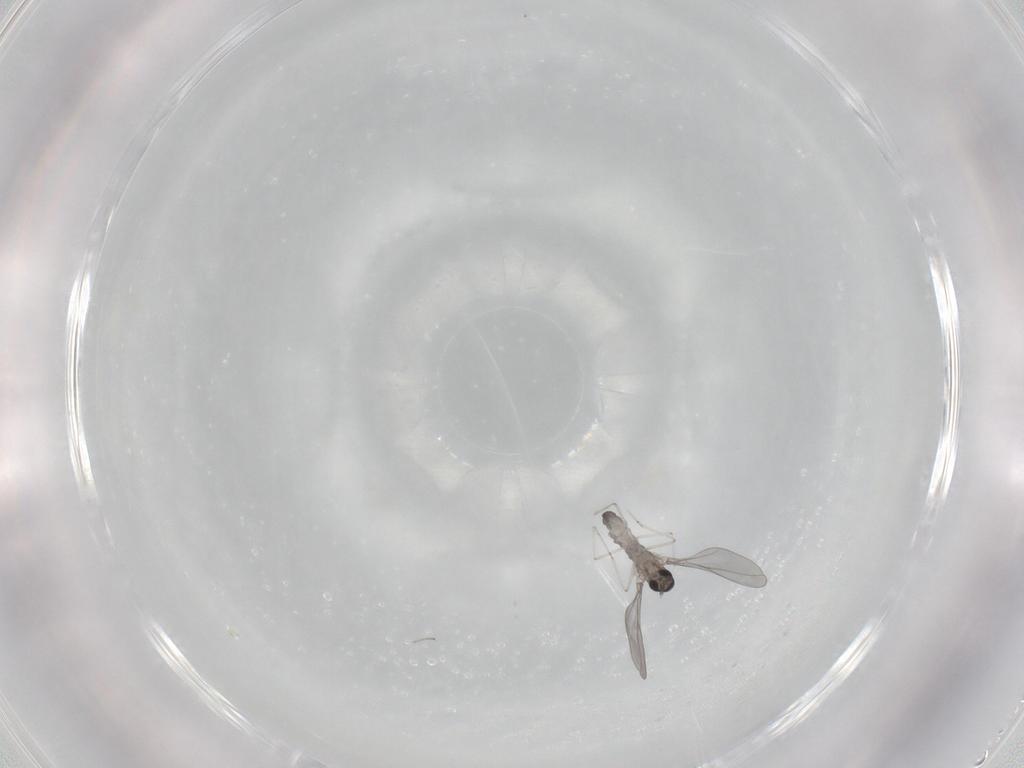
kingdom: Animalia
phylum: Arthropoda
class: Insecta
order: Diptera
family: Cecidomyiidae
